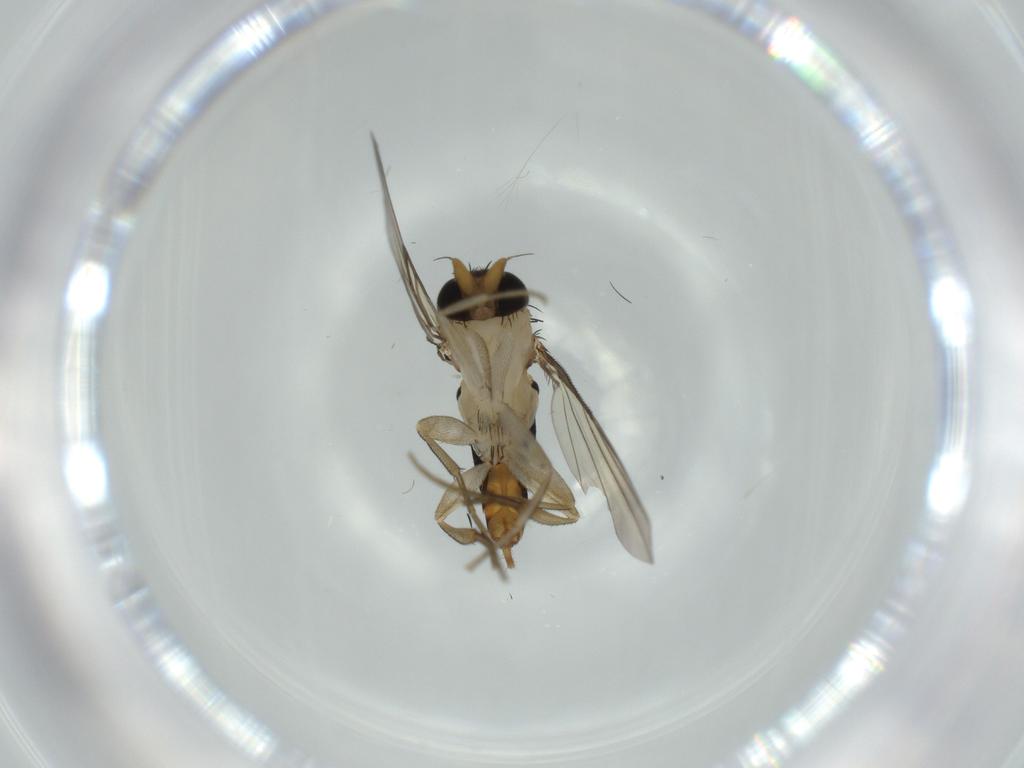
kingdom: Animalia
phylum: Arthropoda
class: Insecta
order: Diptera
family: Phoridae
